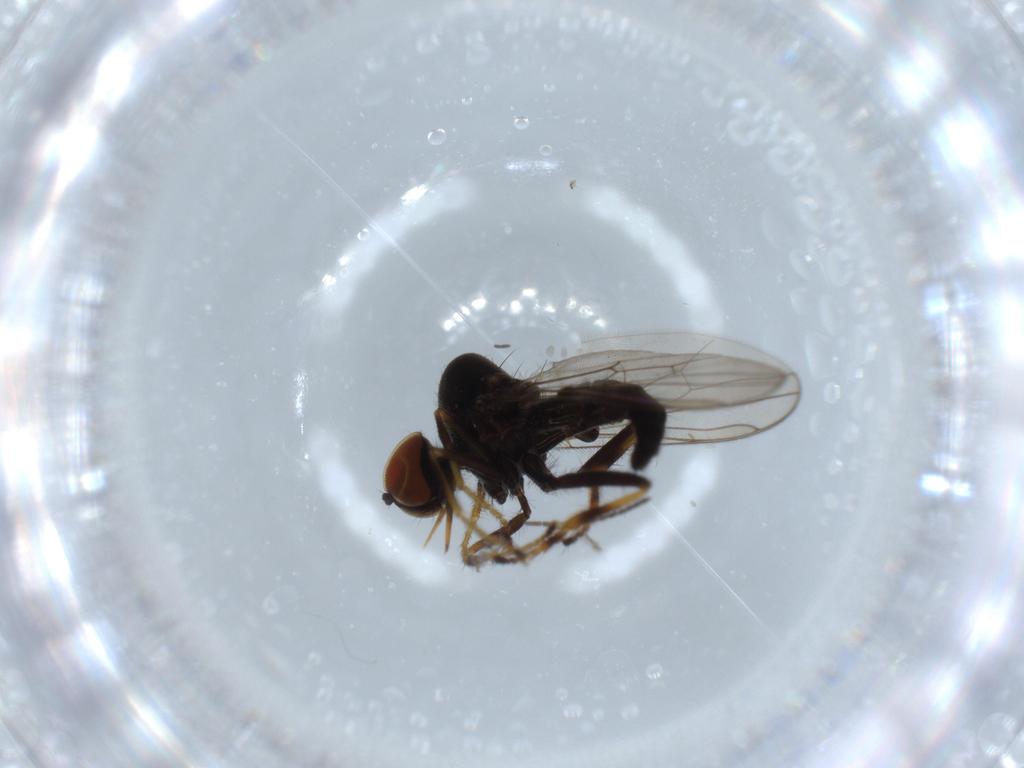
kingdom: Animalia
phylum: Arthropoda
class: Insecta
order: Diptera
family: Hybotidae
